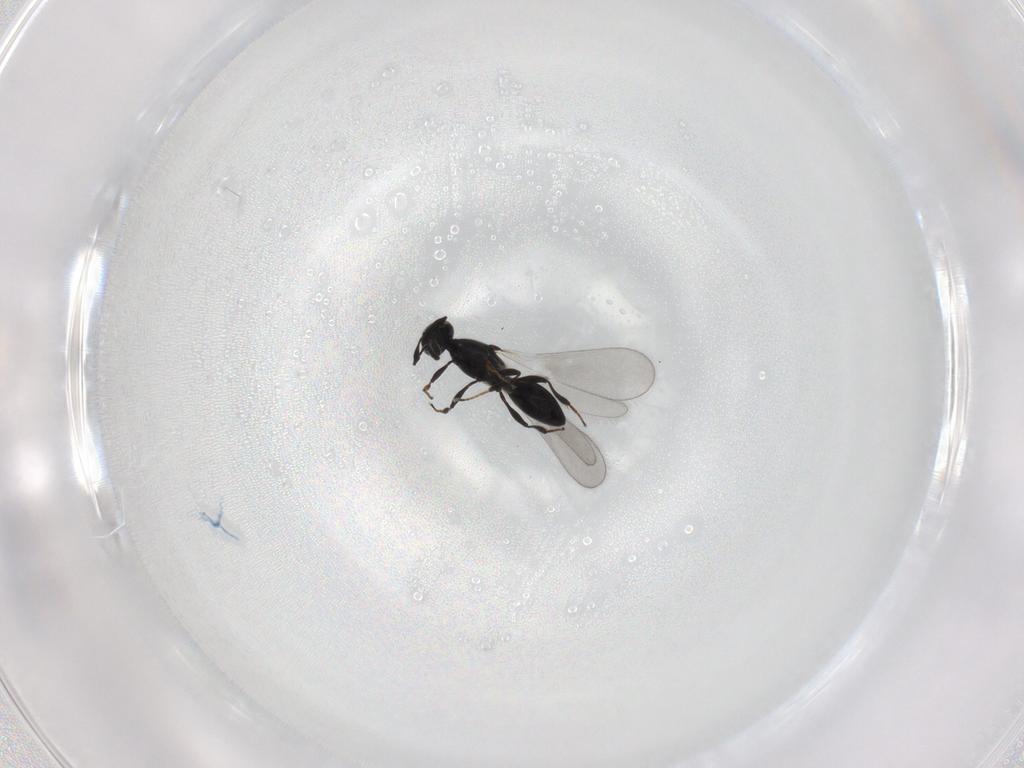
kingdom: Animalia
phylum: Arthropoda
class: Insecta
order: Hymenoptera
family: Platygastridae
